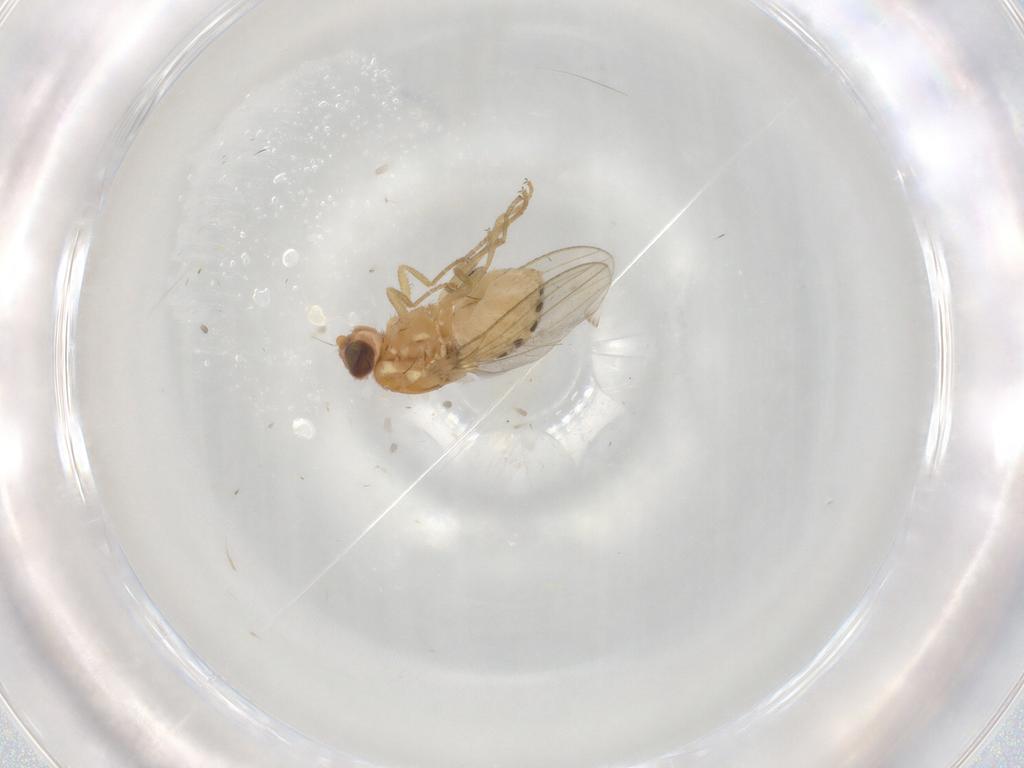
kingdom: Animalia
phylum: Arthropoda
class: Insecta
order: Diptera
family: Chyromyidae
